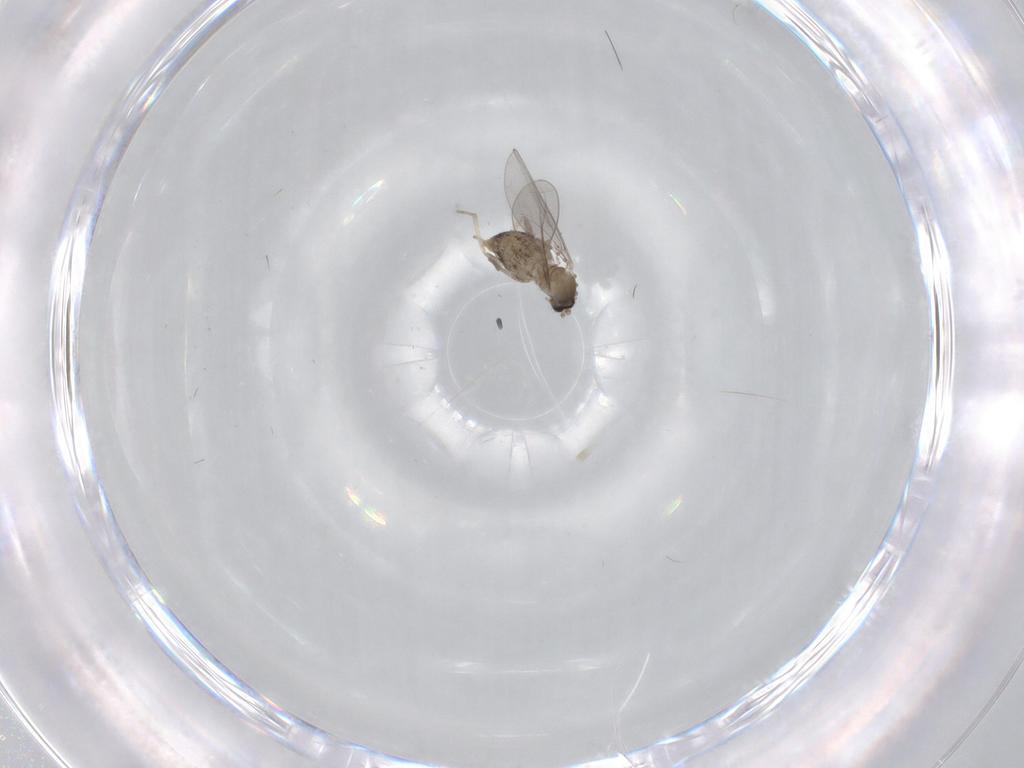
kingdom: Animalia
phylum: Arthropoda
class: Insecta
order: Diptera
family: Cecidomyiidae
